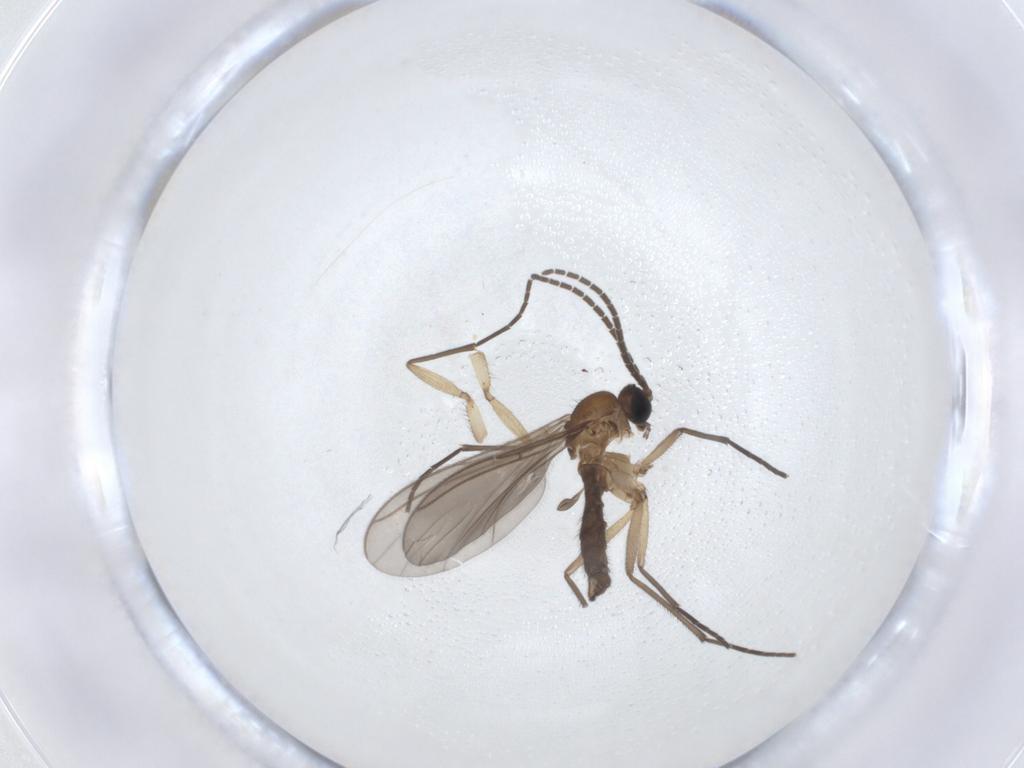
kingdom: Animalia
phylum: Arthropoda
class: Insecta
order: Diptera
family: Sciaridae
